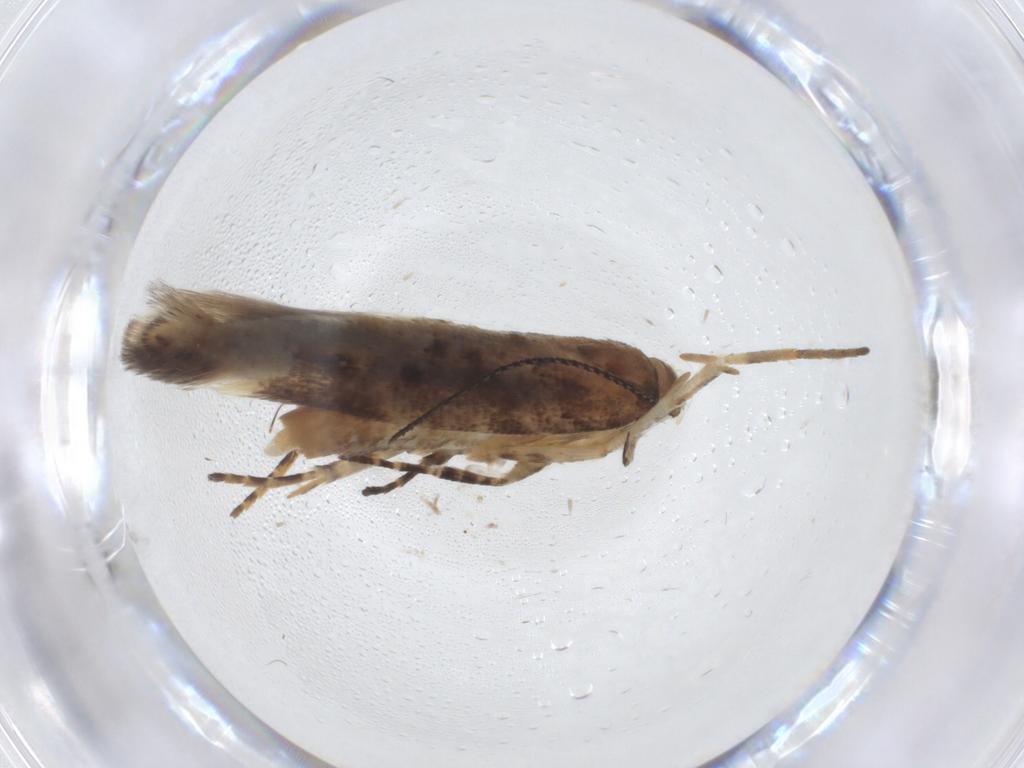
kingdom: Animalia
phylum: Arthropoda
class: Insecta
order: Lepidoptera
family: Gelechiidae
